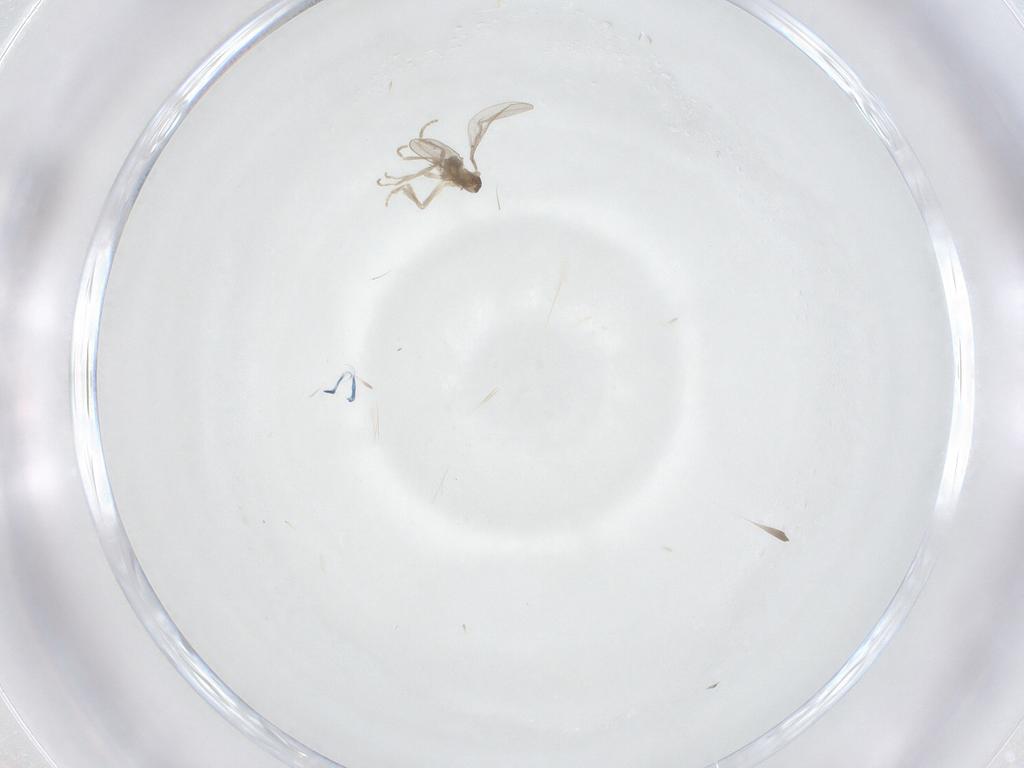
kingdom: Animalia
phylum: Arthropoda
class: Insecta
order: Diptera
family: Cecidomyiidae
